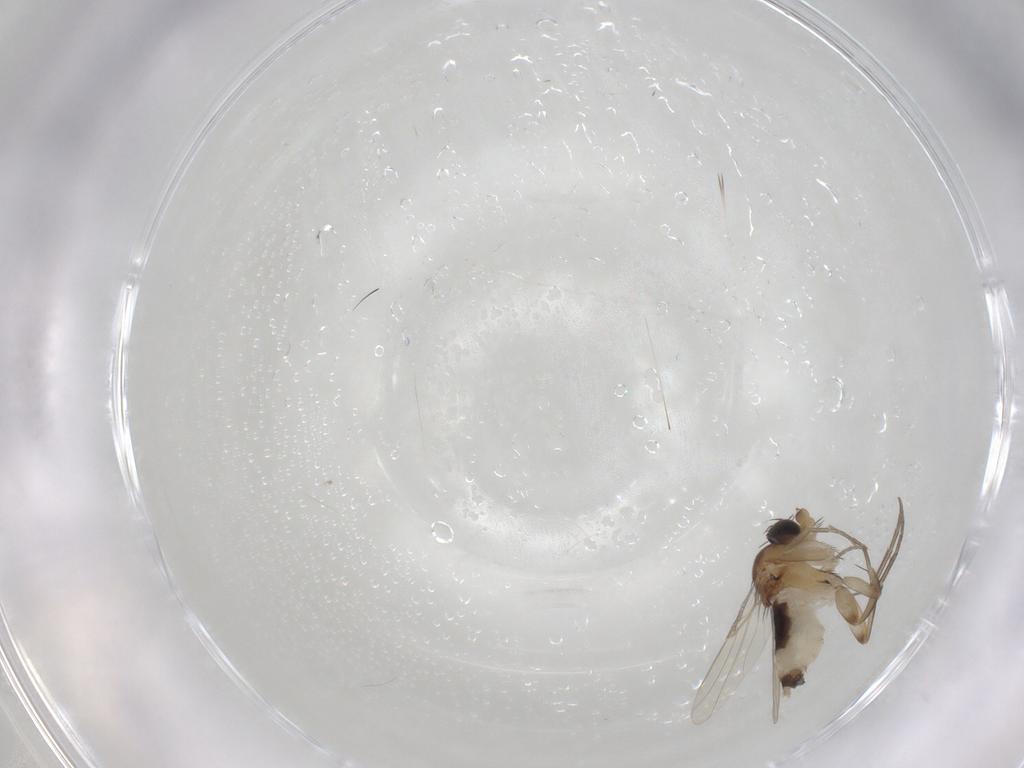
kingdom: Animalia
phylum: Arthropoda
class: Insecta
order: Diptera
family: Phoridae
